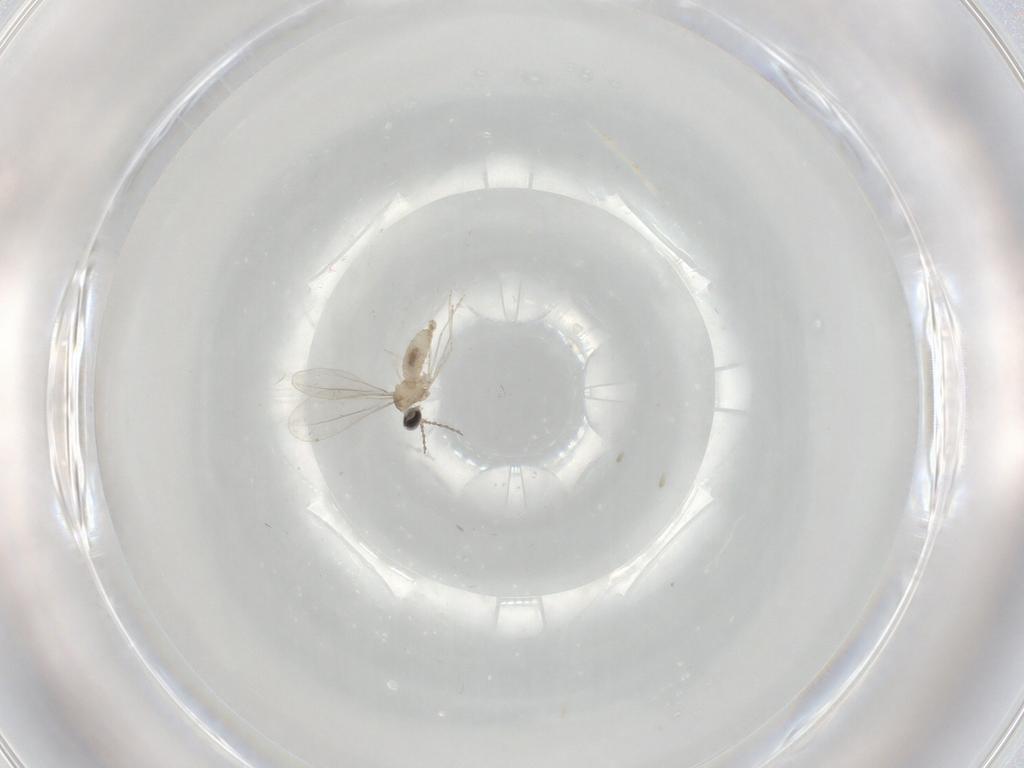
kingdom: Animalia
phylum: Arthropoda
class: Insecta
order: Diptera
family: Cecidomyiidae
